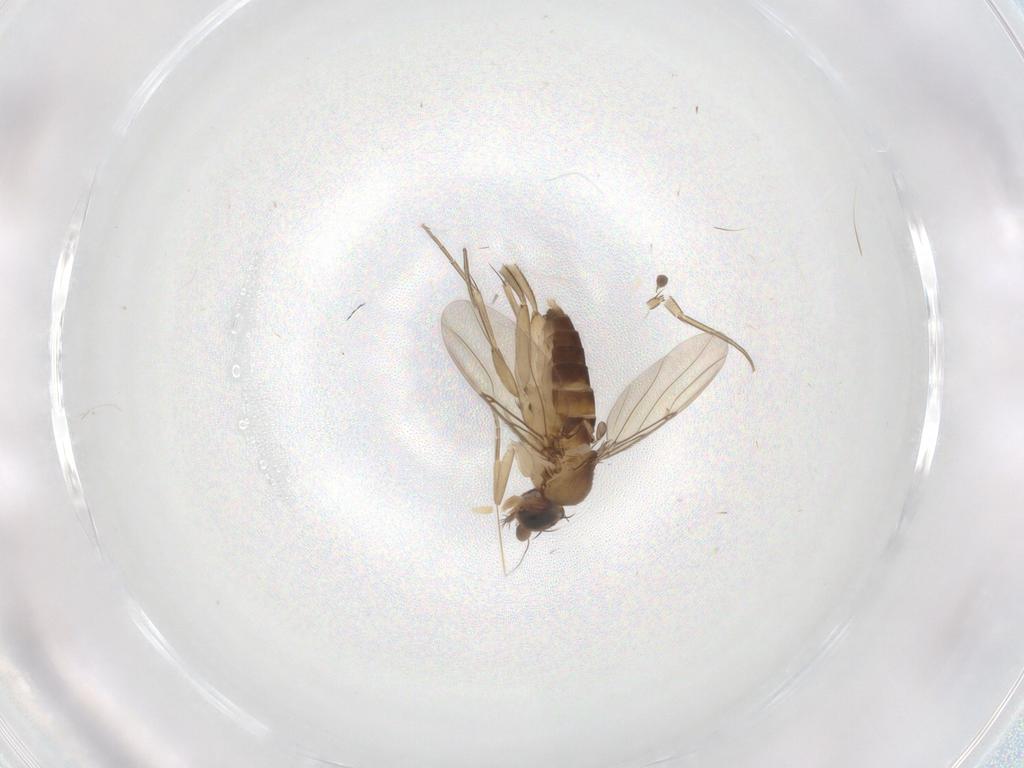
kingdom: Animalia
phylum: Arthropoda
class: Insecta
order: Diptera
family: Phoridae
